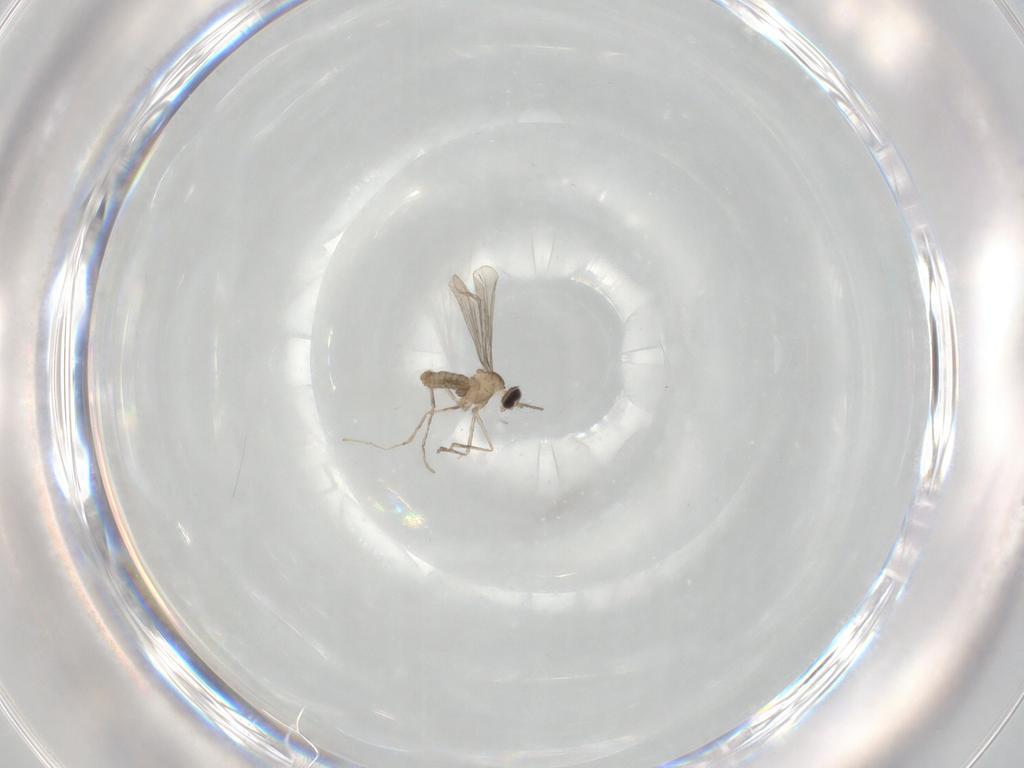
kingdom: Animalia
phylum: Arthropoda
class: Insecta
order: Diptera
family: Cecidomyiidae
